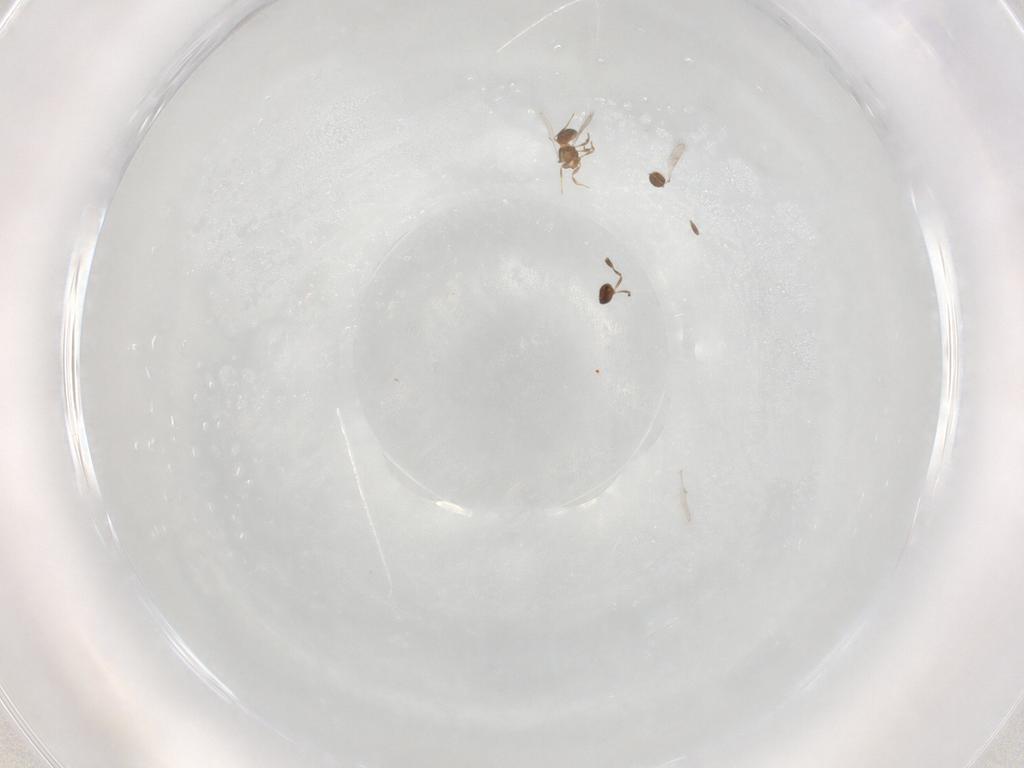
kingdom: Animalia
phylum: Arthropoda
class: Insecta
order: Hymenoptera
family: Scelionidae
